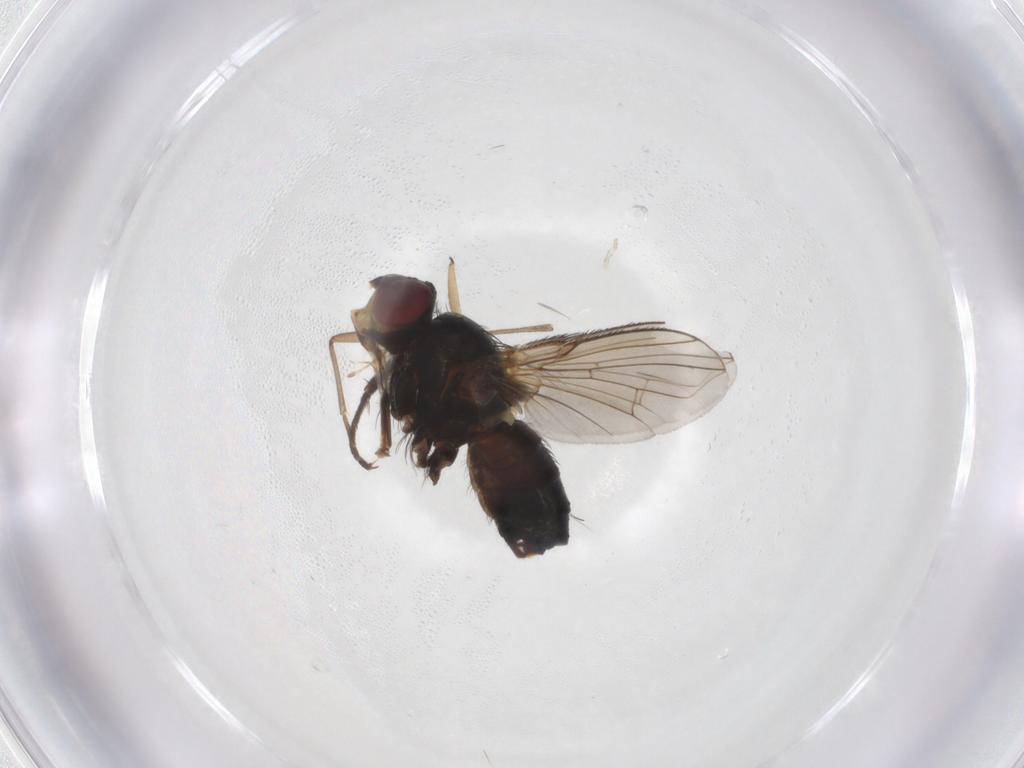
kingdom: Animalia
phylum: Arthropoda
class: Insecta
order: Diptera
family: Calliphoridae
